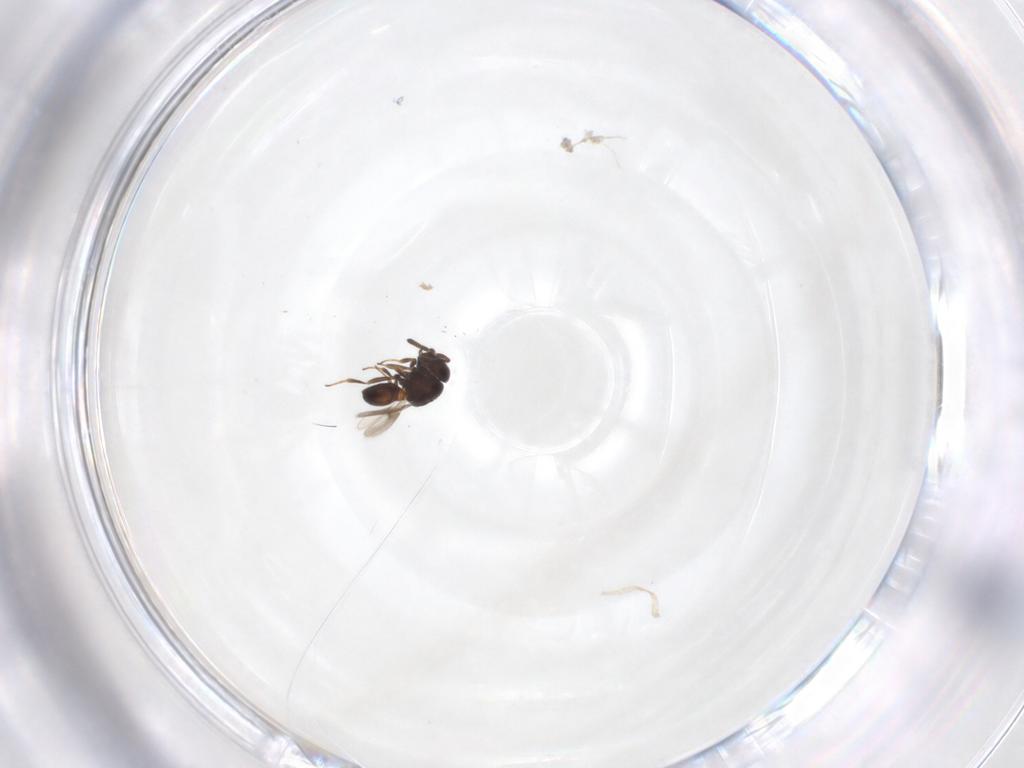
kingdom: Animalia
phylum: Arthropoda
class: Insecta
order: Hymenoptera
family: Scelionidae
